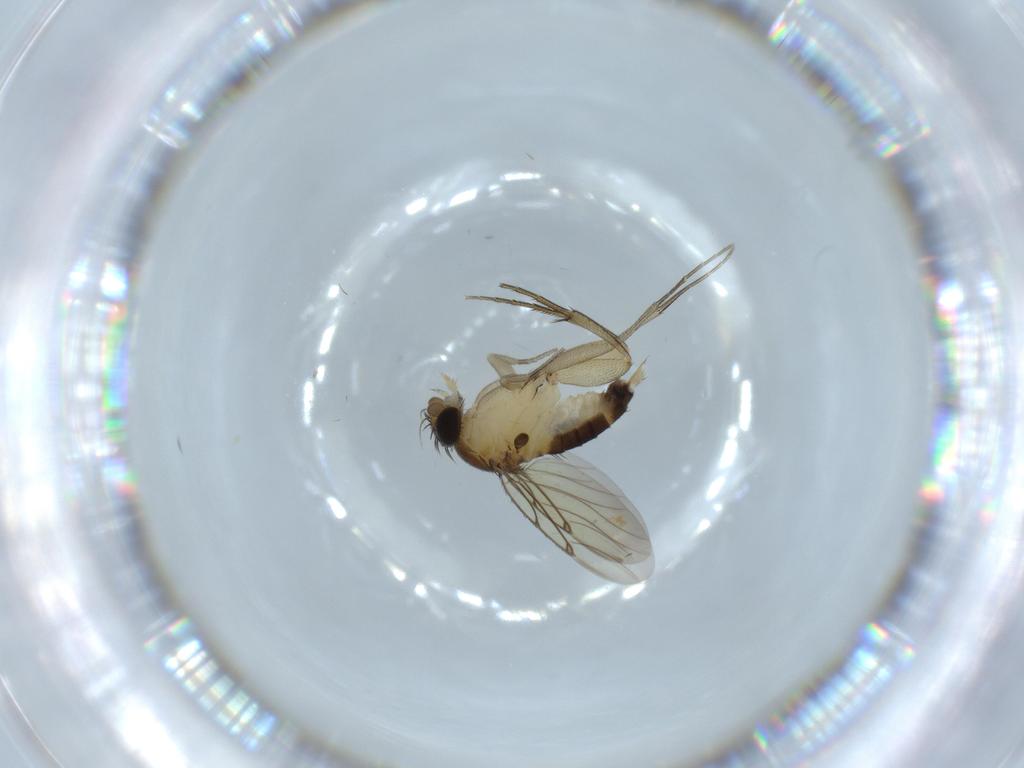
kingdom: Animalia
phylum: Arthropoda
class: Insecta
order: Diptera
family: Phoridae
